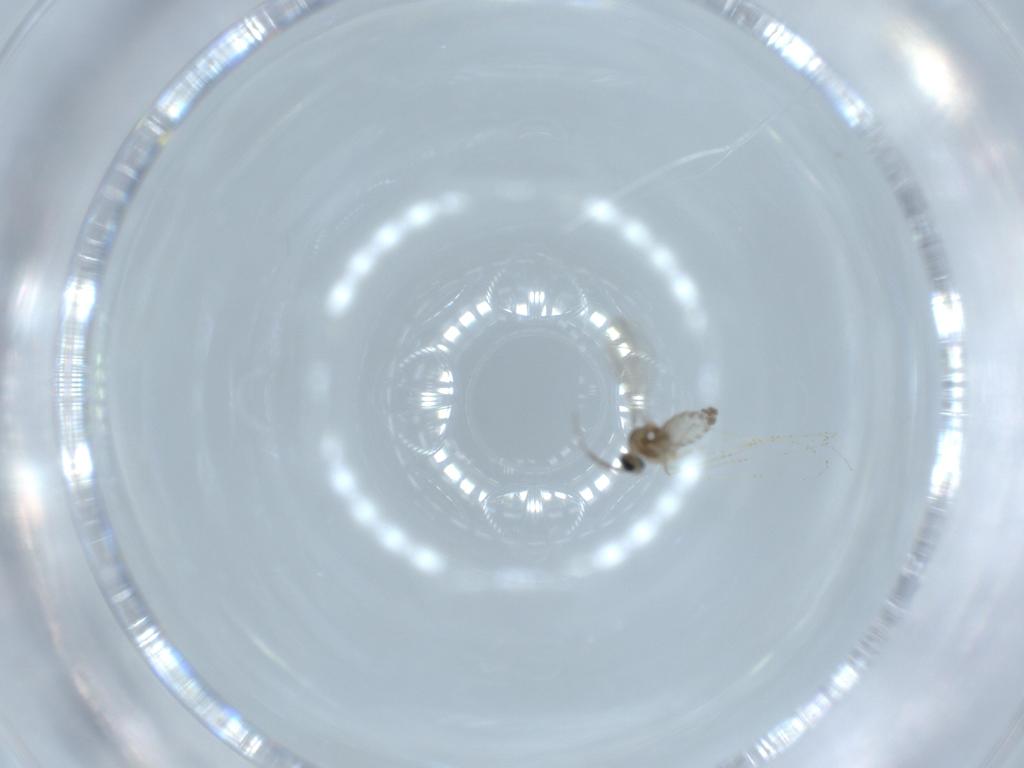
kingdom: Animalia
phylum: Arthropoda
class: Insecta
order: Diptera
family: Cecidomyiidae
